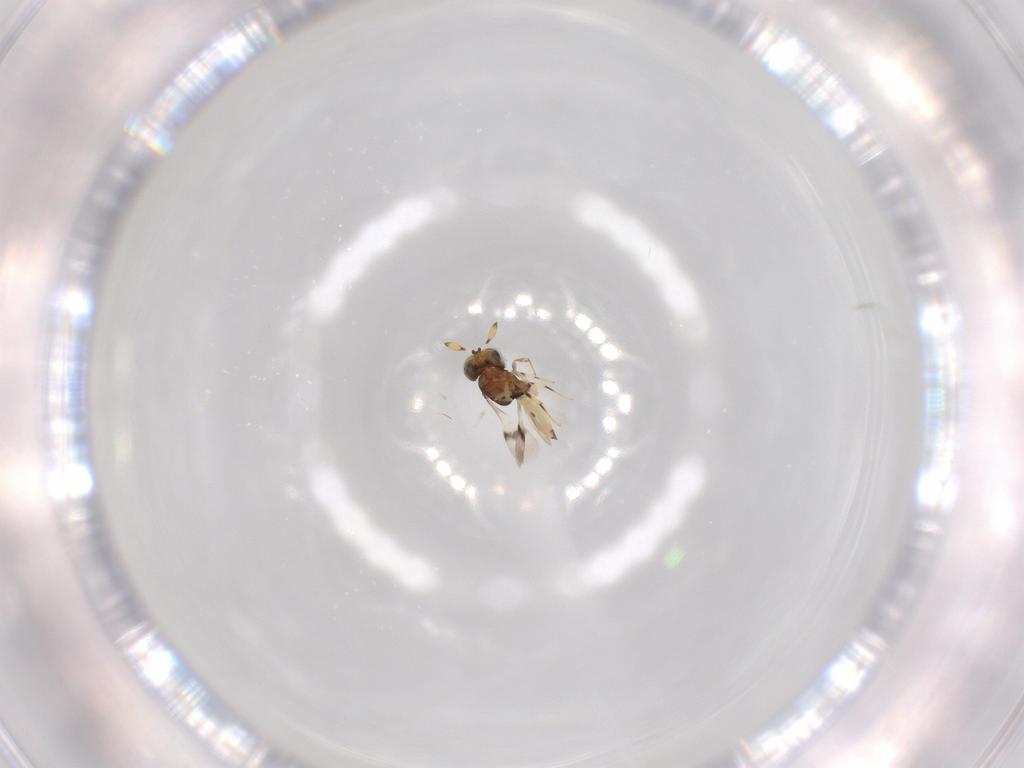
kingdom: Animalia
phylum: Arthropoda
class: Insecta
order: Hymenoptera
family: Scelionidae
